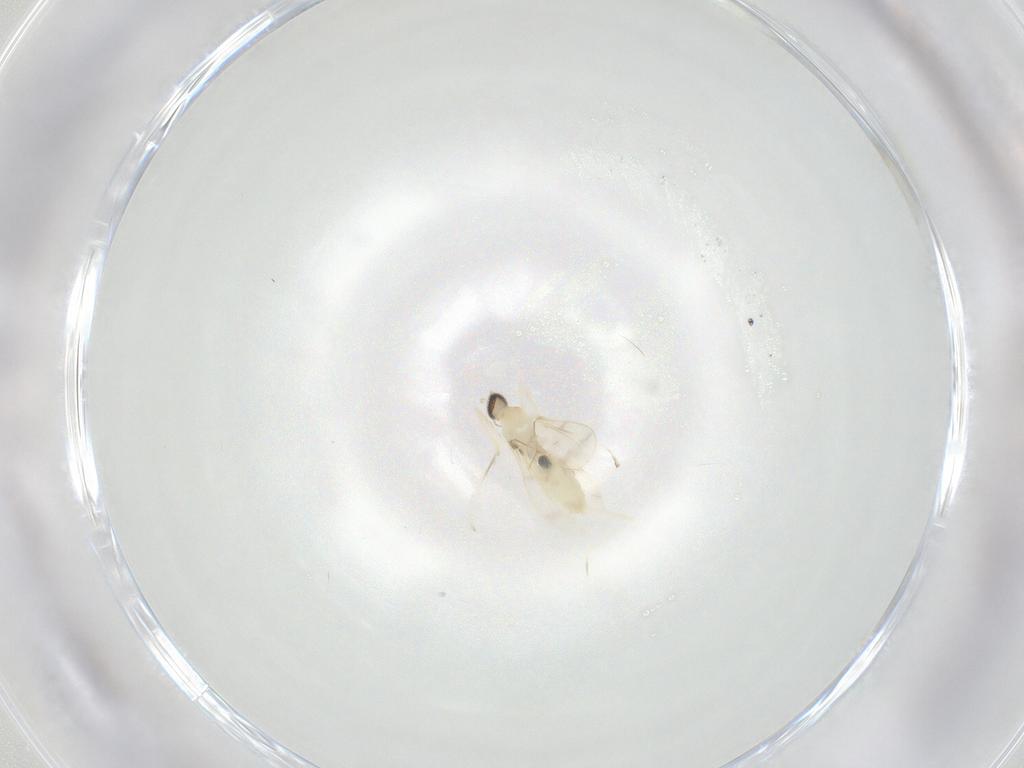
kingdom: Animalia
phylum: Arthropoda
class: Insecta
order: Diptera
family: Cecidomyiidae
